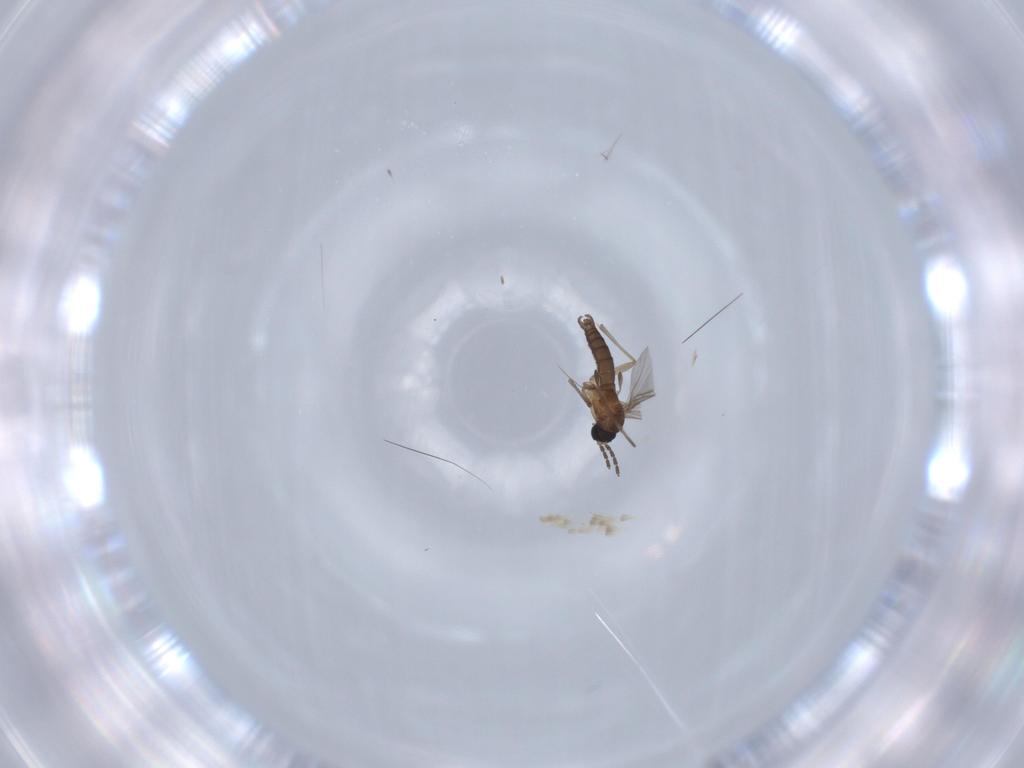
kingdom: Animalia
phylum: Arthropoda
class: Insecta
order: Diptera
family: Sciaridae
